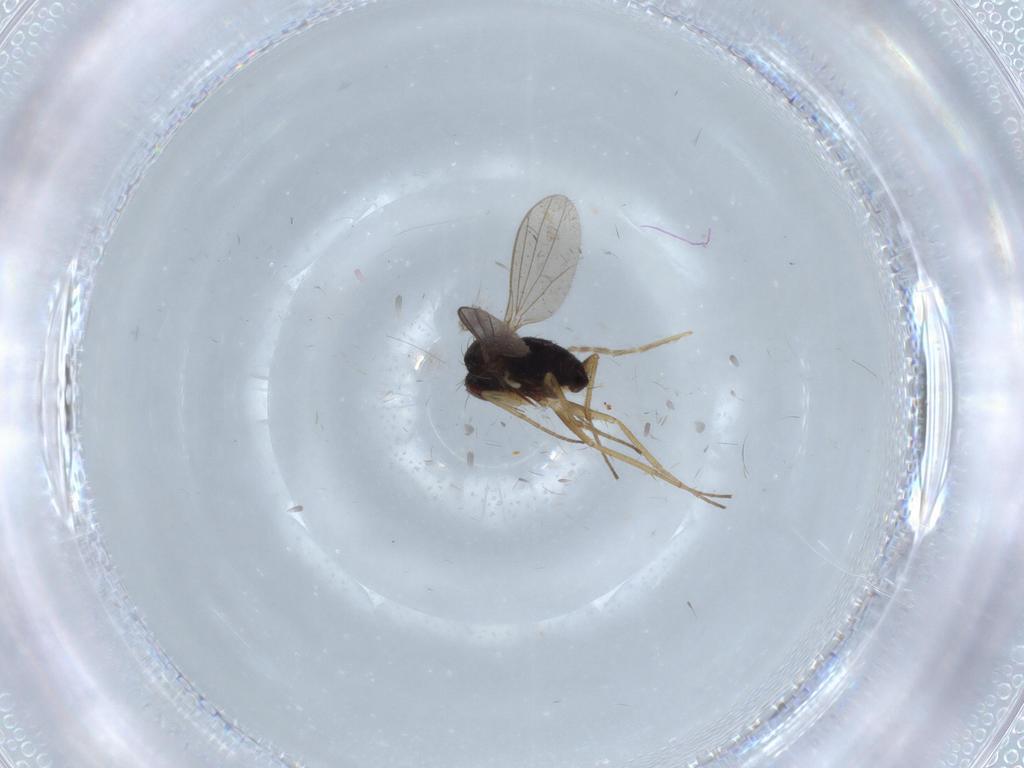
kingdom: Animalia
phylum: Arthropoda
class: Insecta
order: Diptera
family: Dolichopodidae
